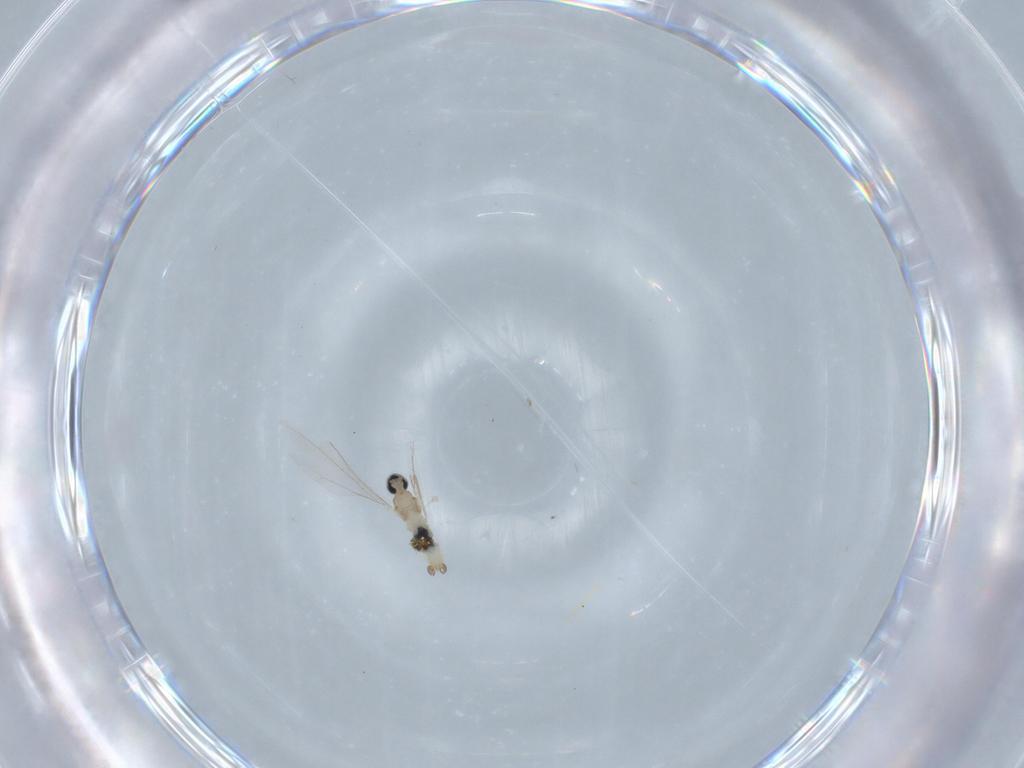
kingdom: Animalia
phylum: Arthropoda
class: Insecta
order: Diptera
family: Cecidomyiidae
